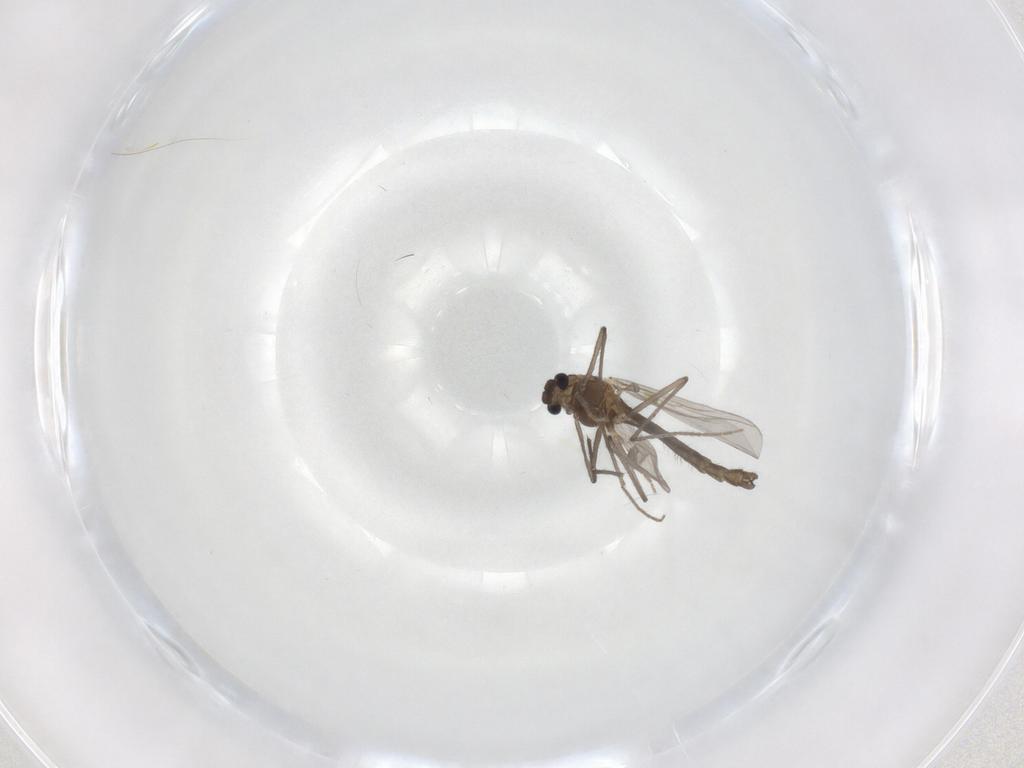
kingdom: Animalia
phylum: Arthropoda
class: Insecta
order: Diptera
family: Chironomidae
